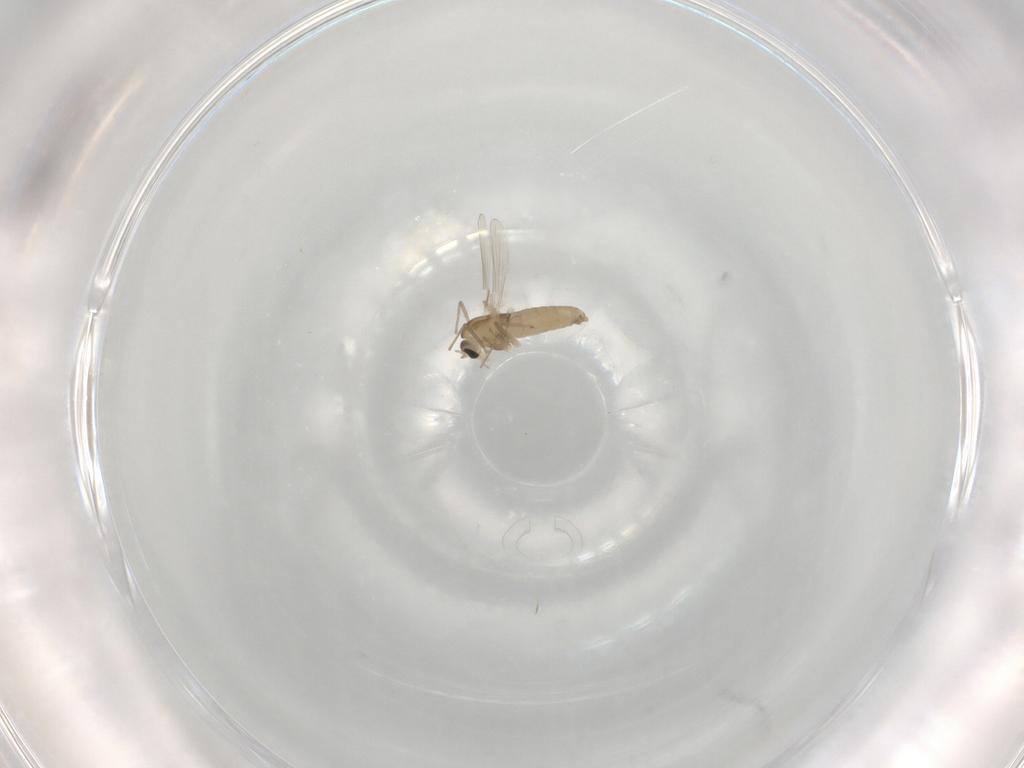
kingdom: Animalia
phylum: Arthropoda
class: Insecta
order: Diptera
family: Chironomidae
